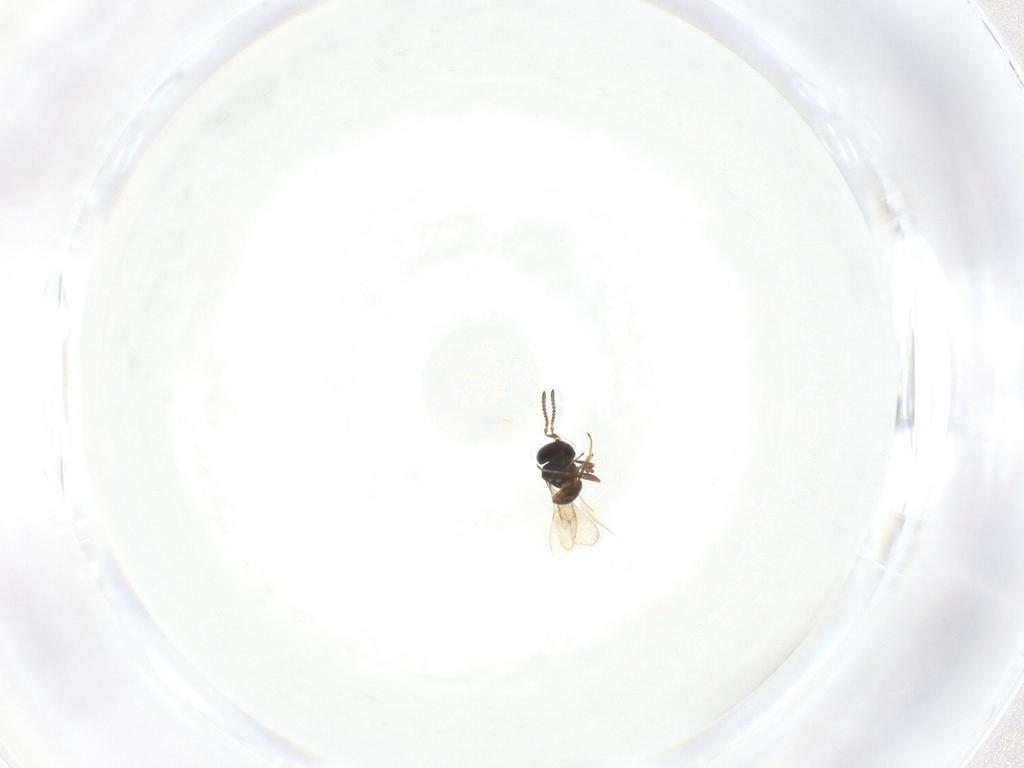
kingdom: Animalia
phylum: Arthropoda
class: Insecta
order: Hymenoptera
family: Scelionidae
